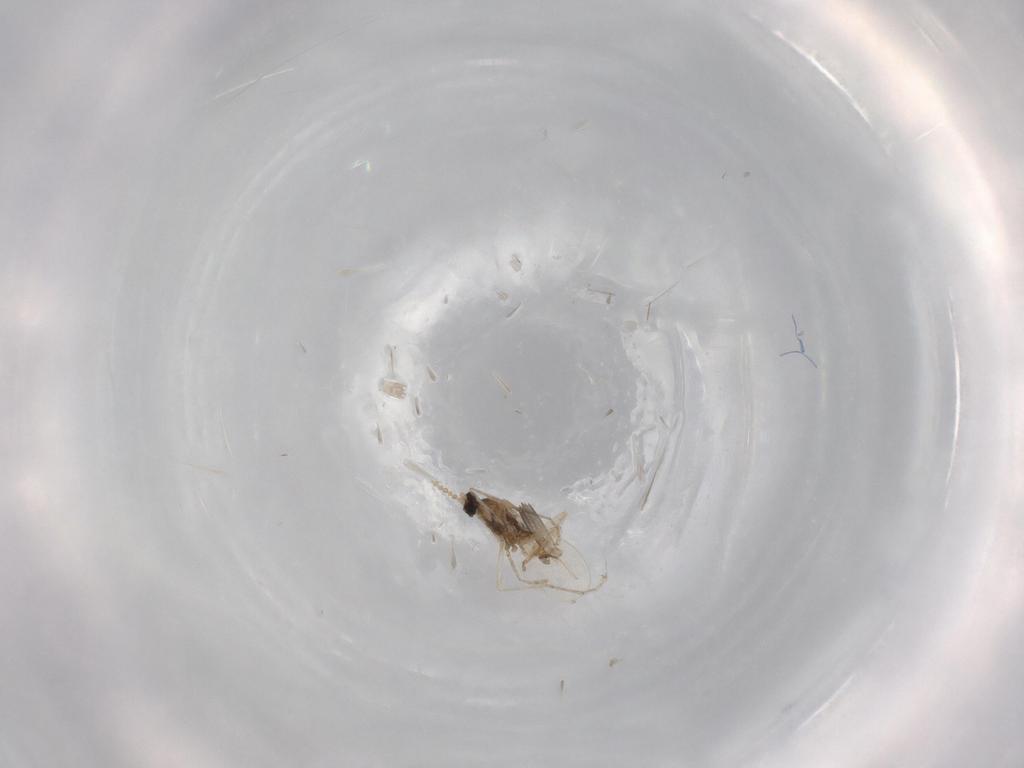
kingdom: Animalia
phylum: Arthropoda
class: Insecta
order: Diptera
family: Cecidomyiidae
